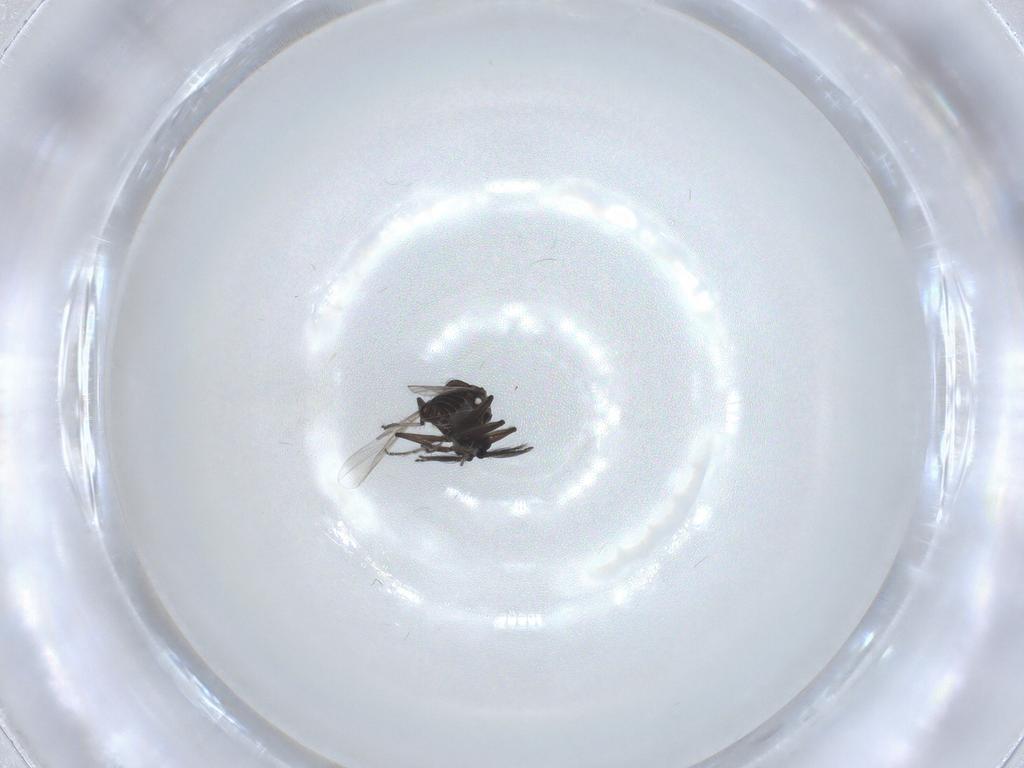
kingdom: Animalia
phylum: Arthropoda
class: Insecta
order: Diptera
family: Ceratopogonidae
